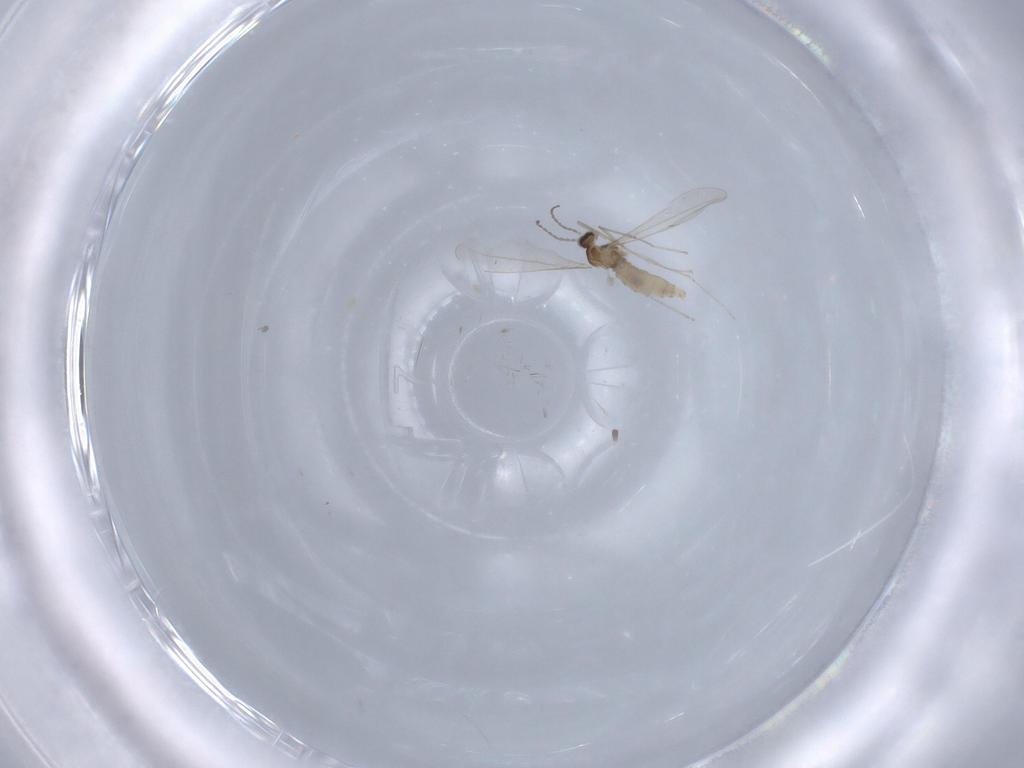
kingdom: Animalia
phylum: Arthropoda
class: Insecta
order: Diptera
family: Cecidomyiidae
